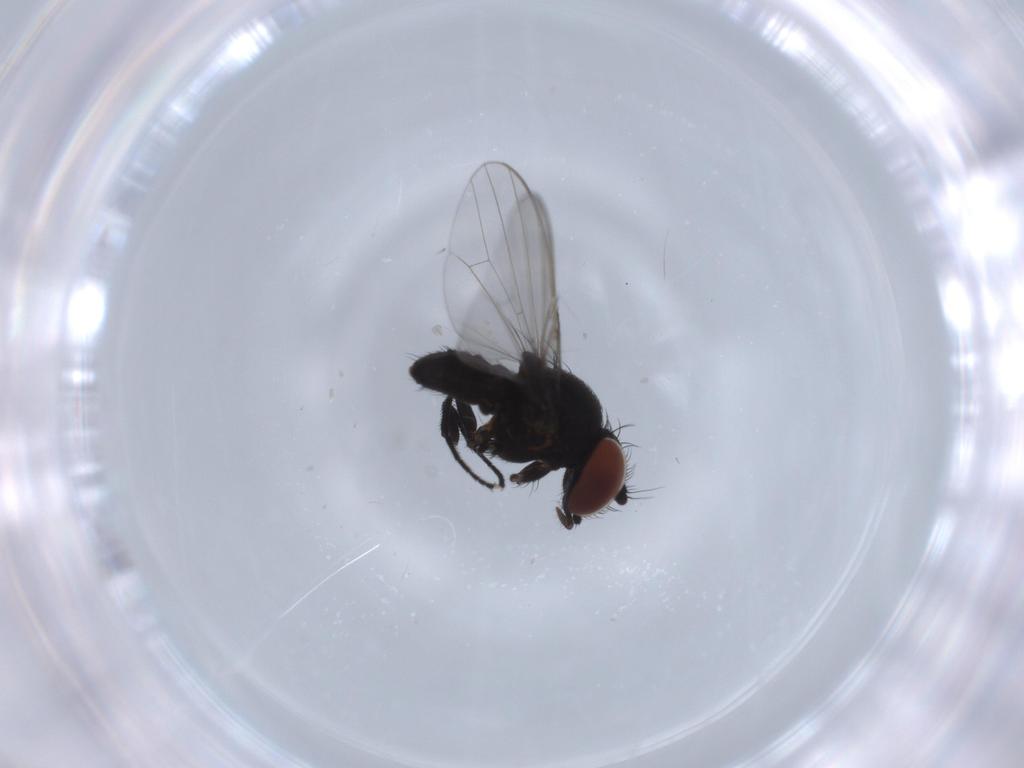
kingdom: Animalia
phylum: Arthropoda
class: Insecta
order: Diptera
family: Milichiidae
